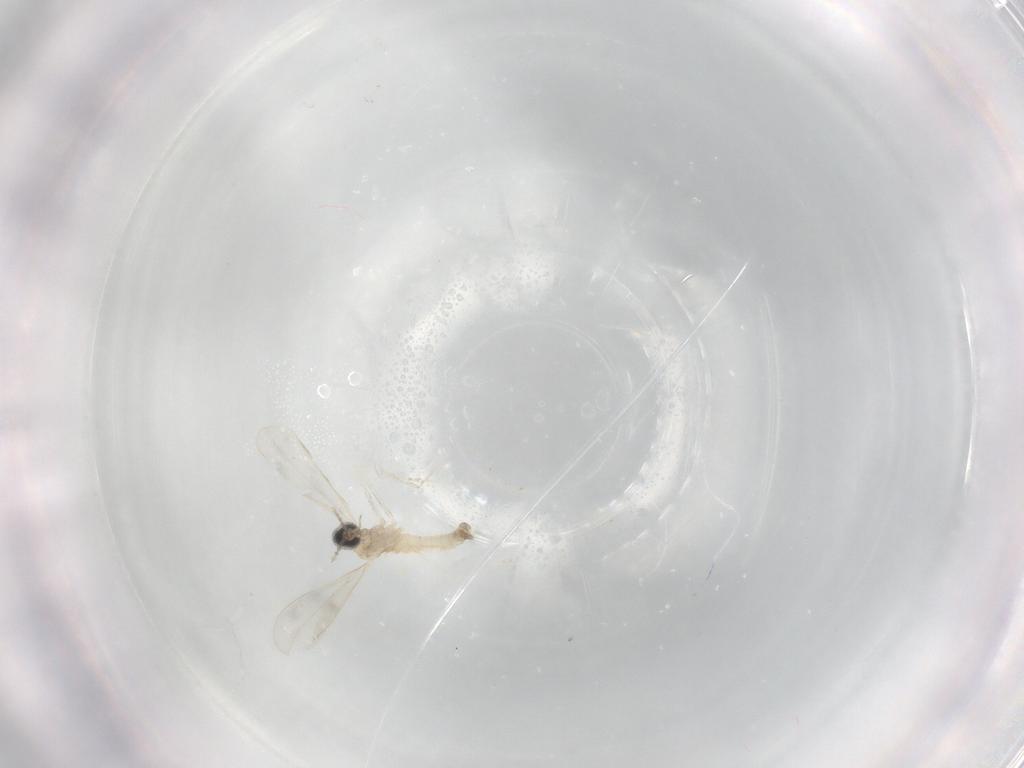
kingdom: Animalia
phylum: Arthropoda
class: Insecta
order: Diptera
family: Cecidomyiidae
